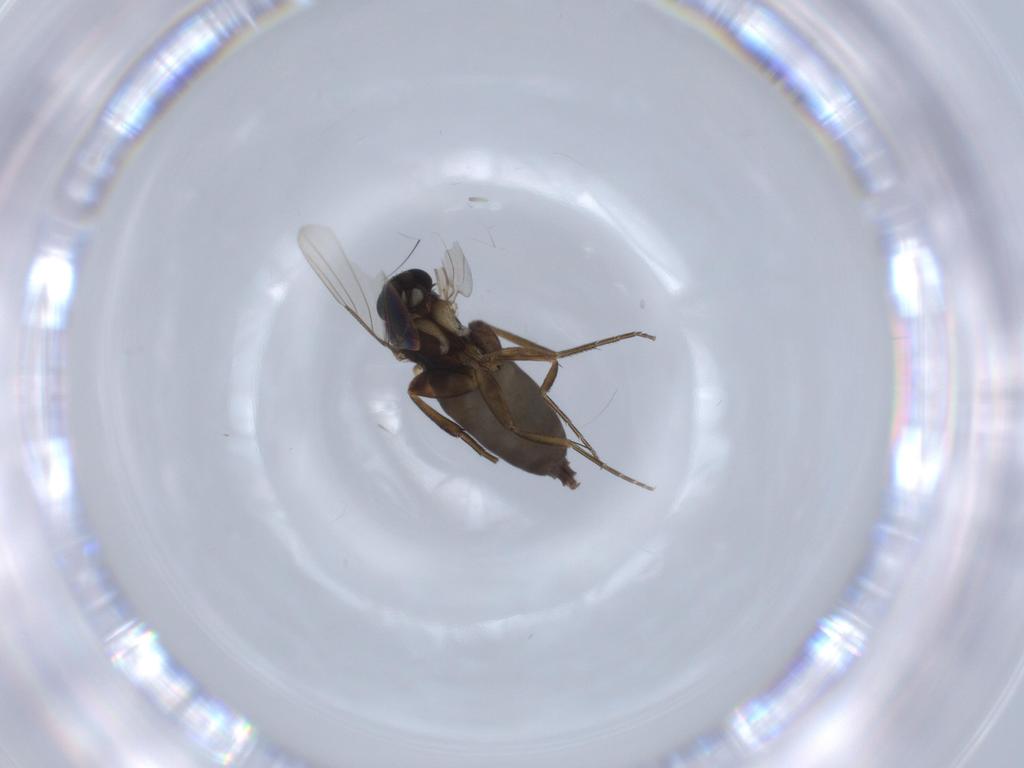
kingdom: Animalia
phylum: Arthropoda
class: Insecta
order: Diptera
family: Phoridae
